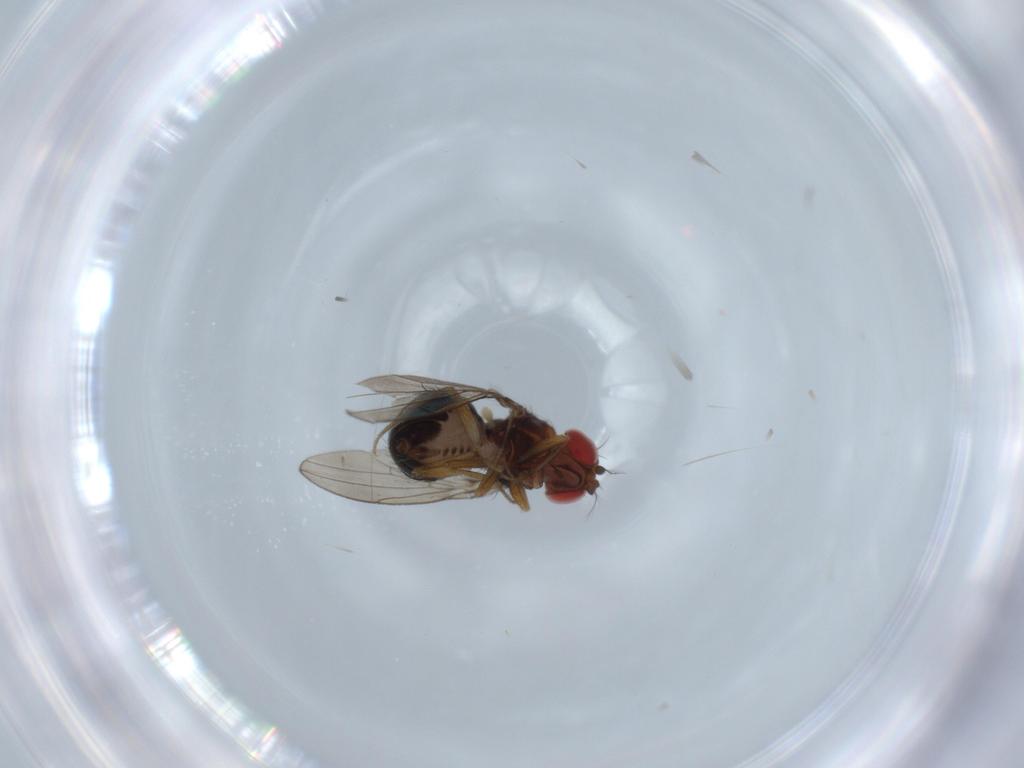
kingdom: Animalia
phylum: Arthropoda
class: Insecta
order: Diptera
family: Drosophilidae
